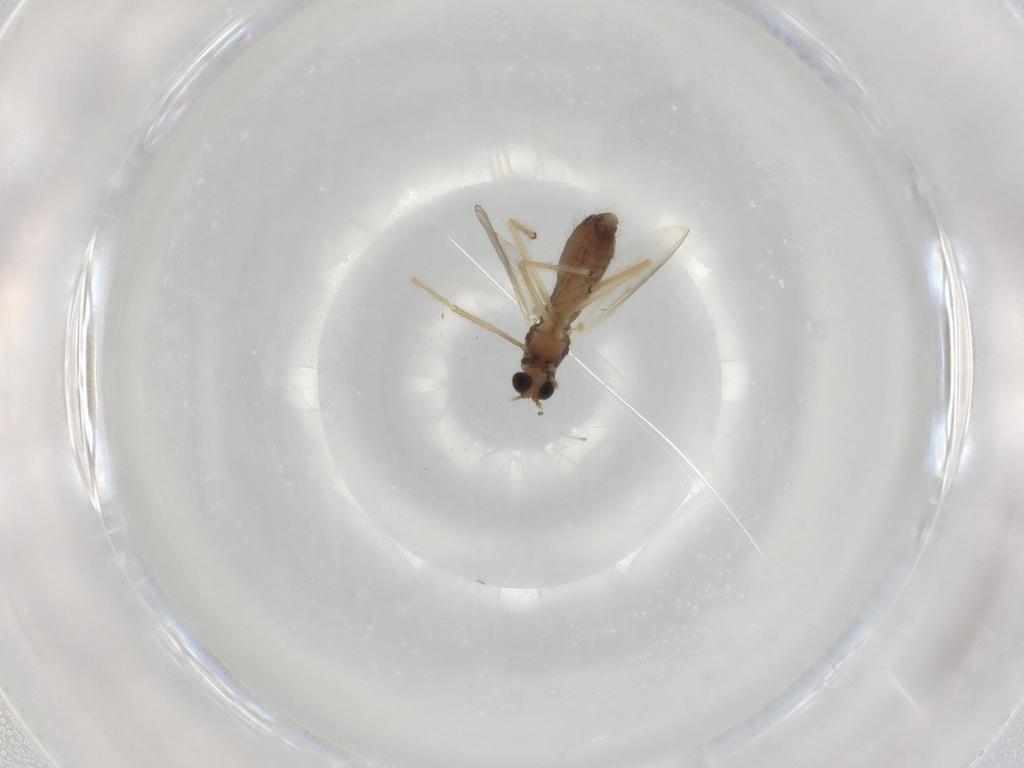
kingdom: Animalia
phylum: Arthropoda
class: Insecta
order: Diptera
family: Chironomidae
